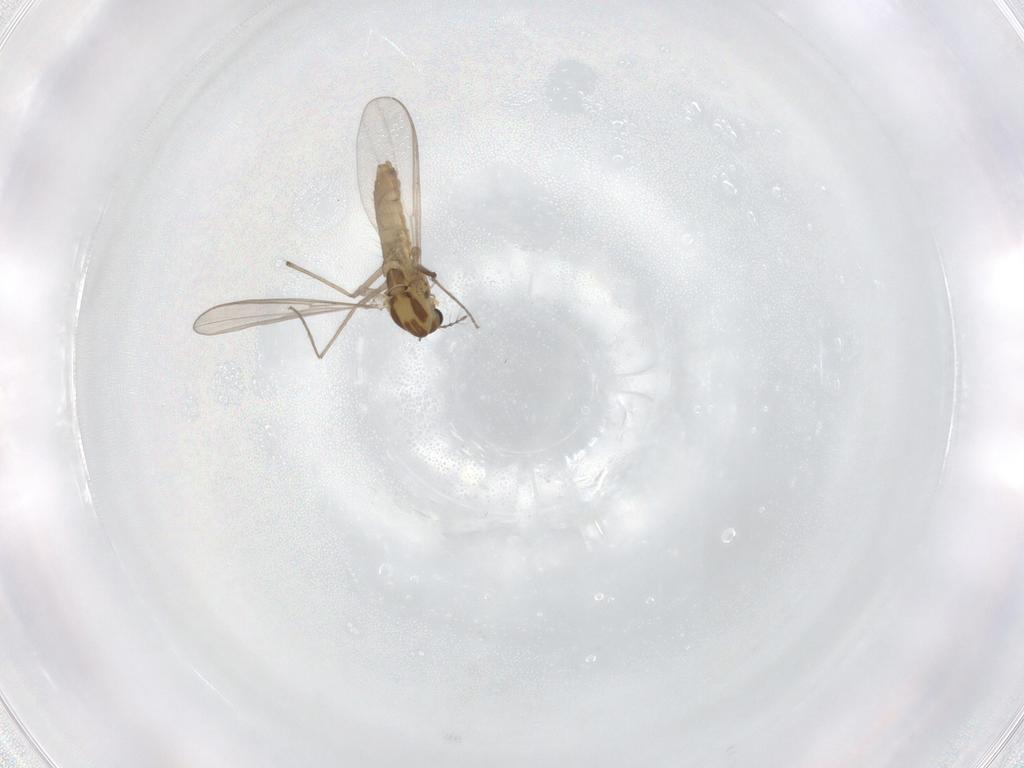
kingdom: Animalia
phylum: Arthropoda
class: Insecta
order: Diptera
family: Chironomidae
